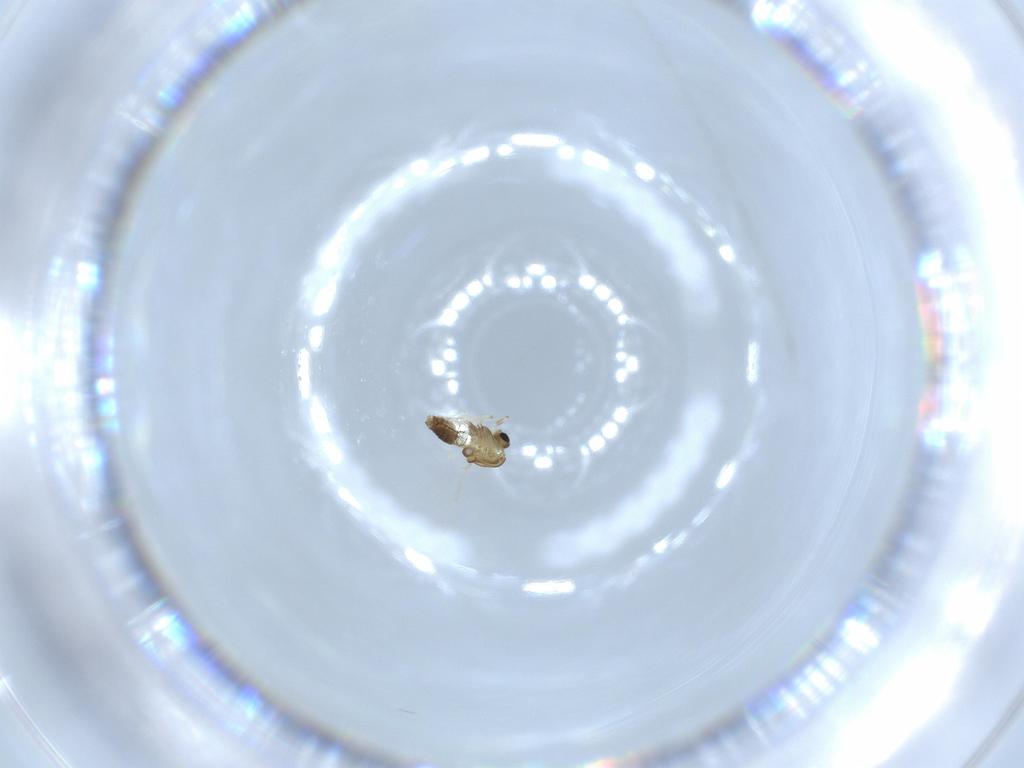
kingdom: Animalia
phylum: Arthropoda
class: Insecta
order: Diptera
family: Chironomidae
